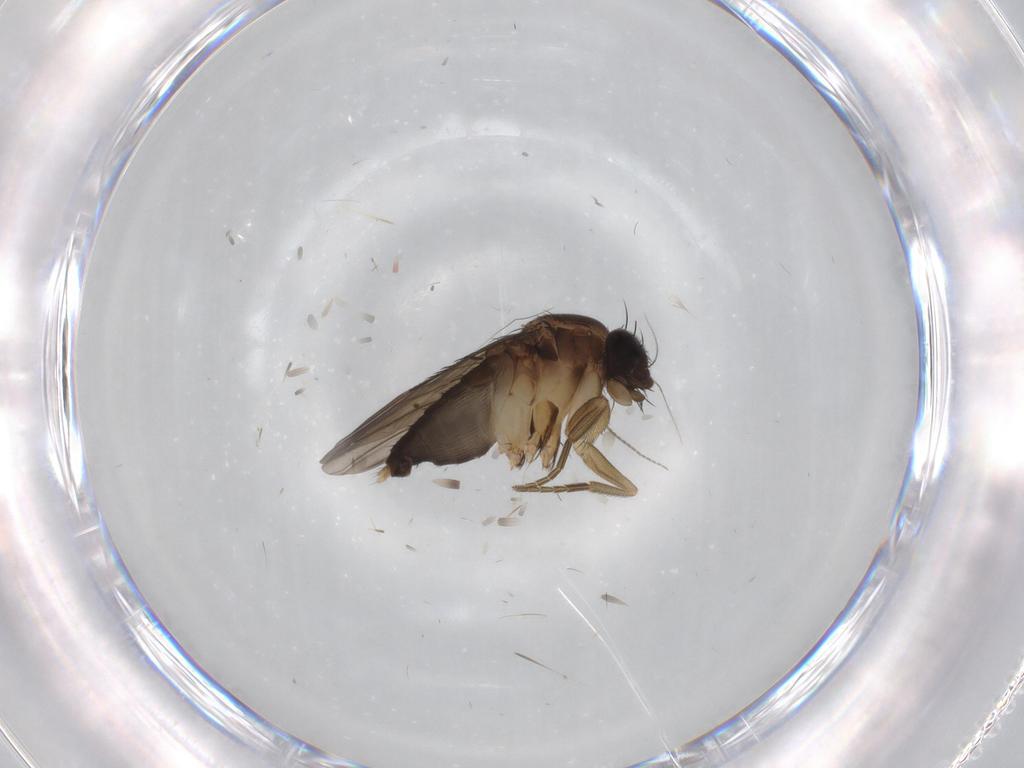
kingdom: Animalia
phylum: Arthropoda
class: Insecta
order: Diptera
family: Phoridae
